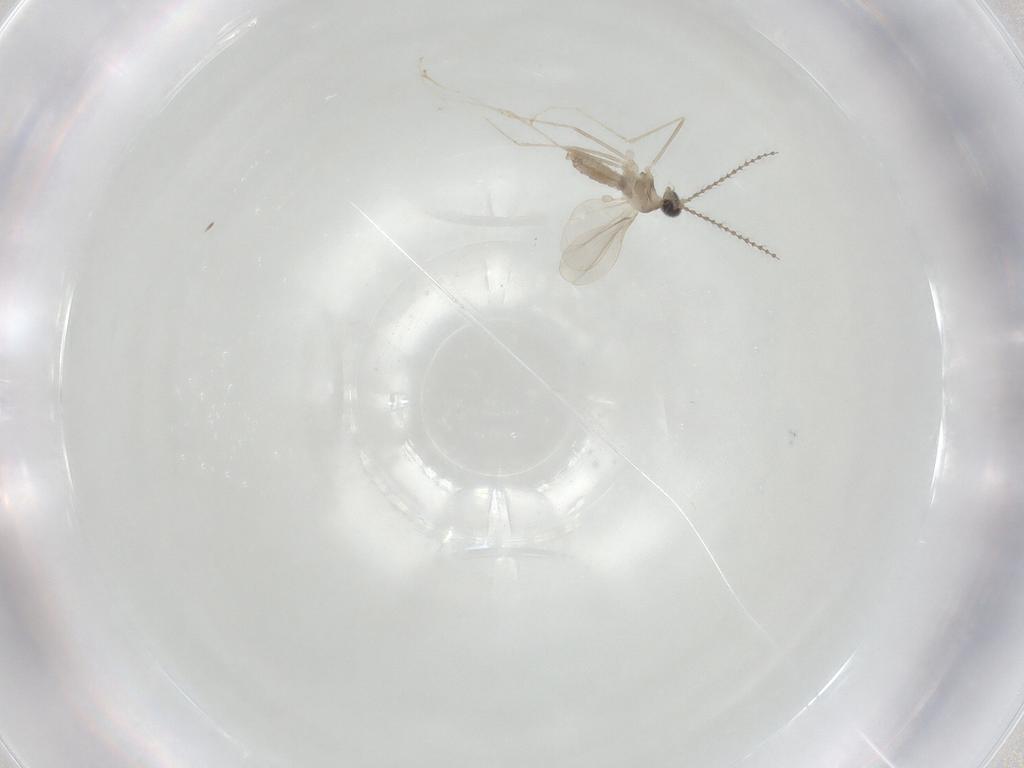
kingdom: Animalia
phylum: Arthropoda
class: Insecta
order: Diptera
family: Cecidomyiidae
